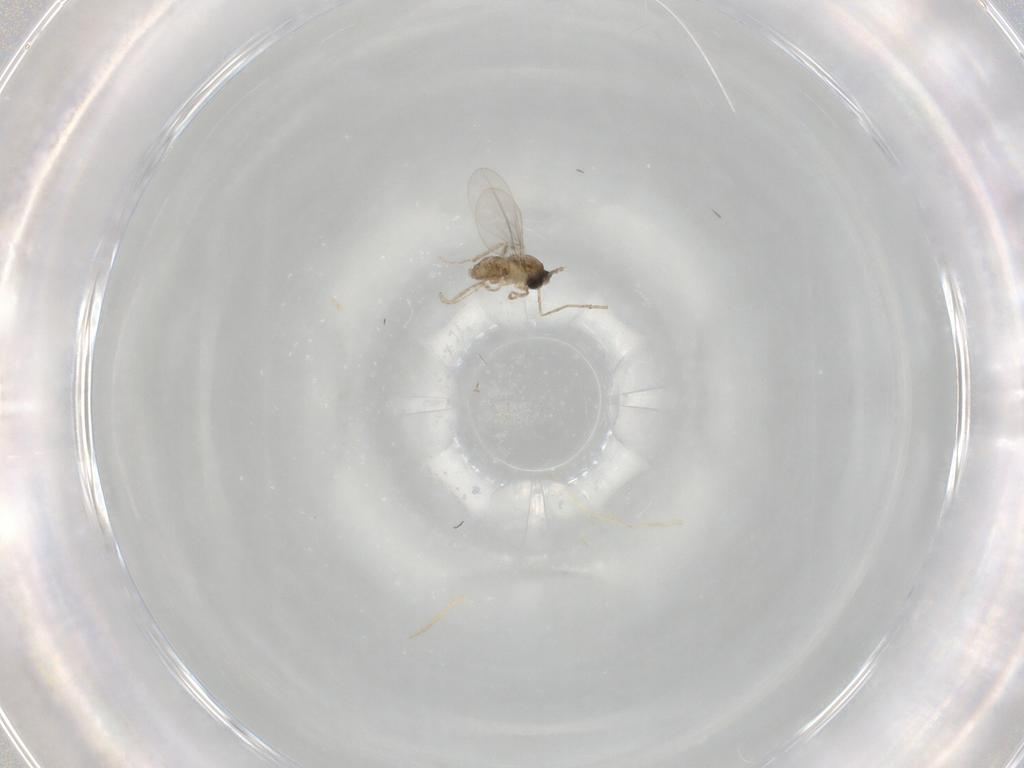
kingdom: Animalia
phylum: Arthropoda
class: Insecta
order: Diptera
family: Cecidomyiidae
